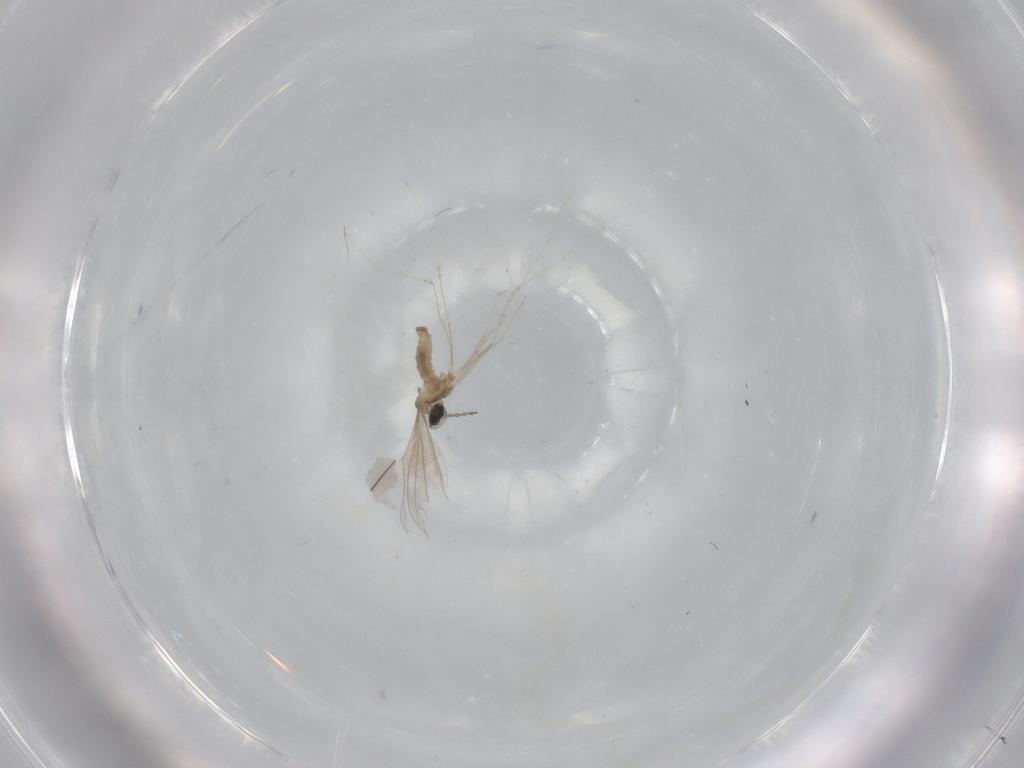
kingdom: Animalia
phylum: Arthropoda
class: Insecta
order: Diptera
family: Cecidomyiidae
